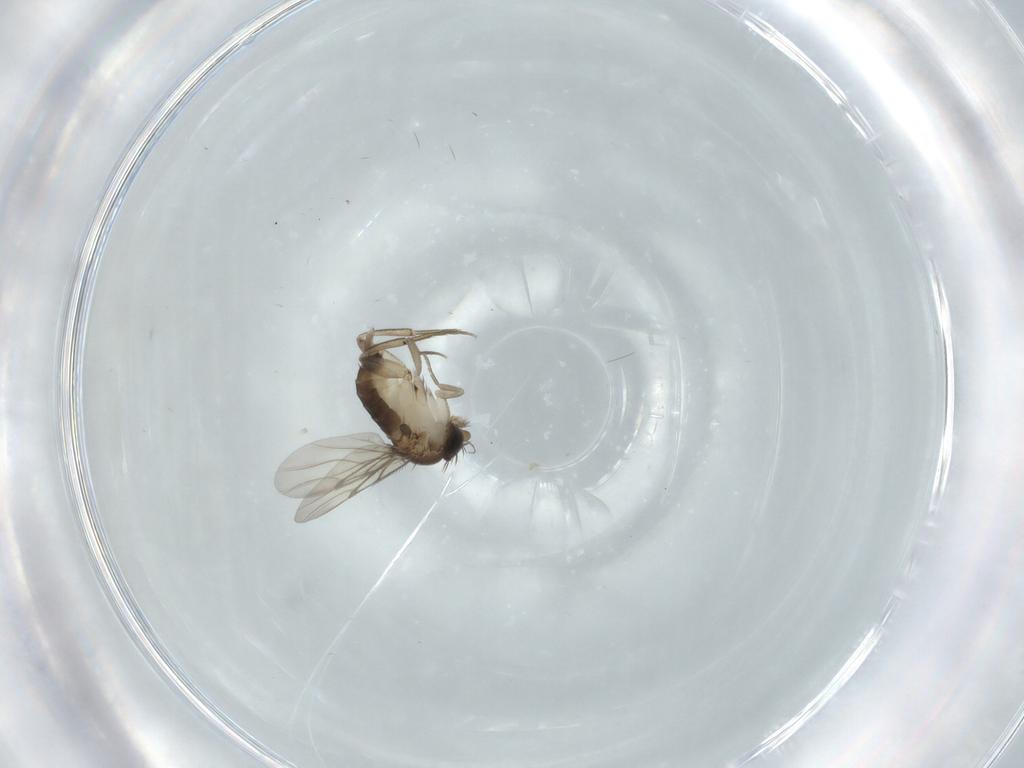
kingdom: Animalia
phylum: Arthropoda
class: Insecta
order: Diptera
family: Phoridae
